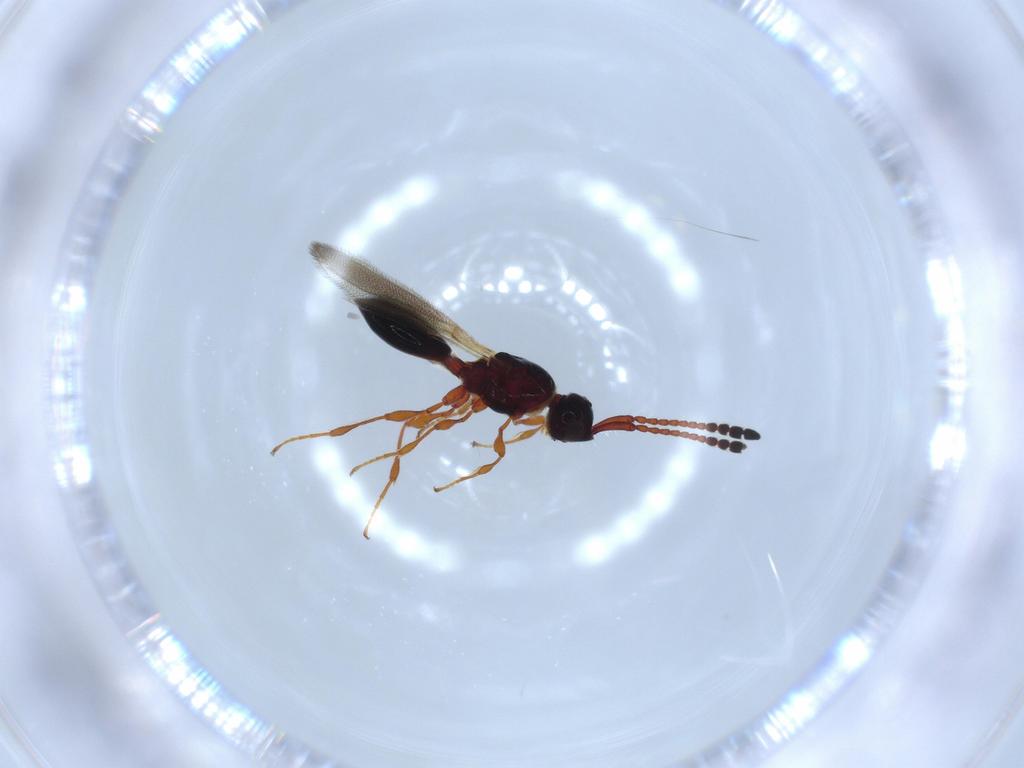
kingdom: Animalia
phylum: Arthropoda
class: Insecta
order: Hymenoptera
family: Diapriidae
